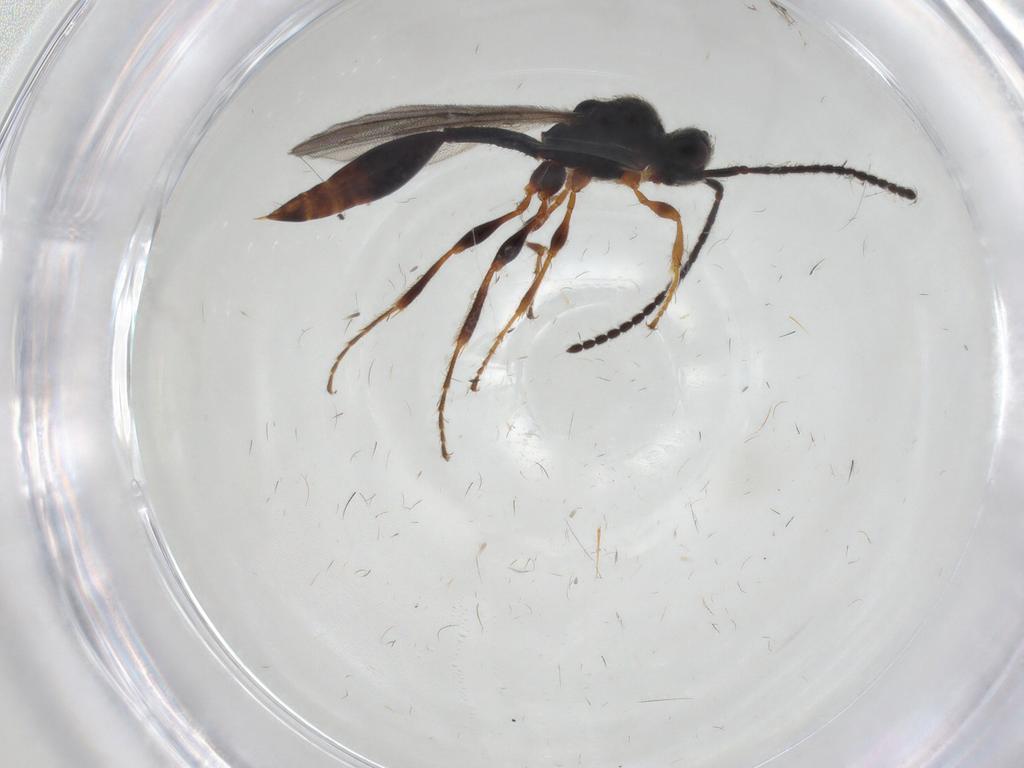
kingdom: Animalia
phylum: Arthropoda
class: Insecta
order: Hymenoptera
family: Diapriidae
